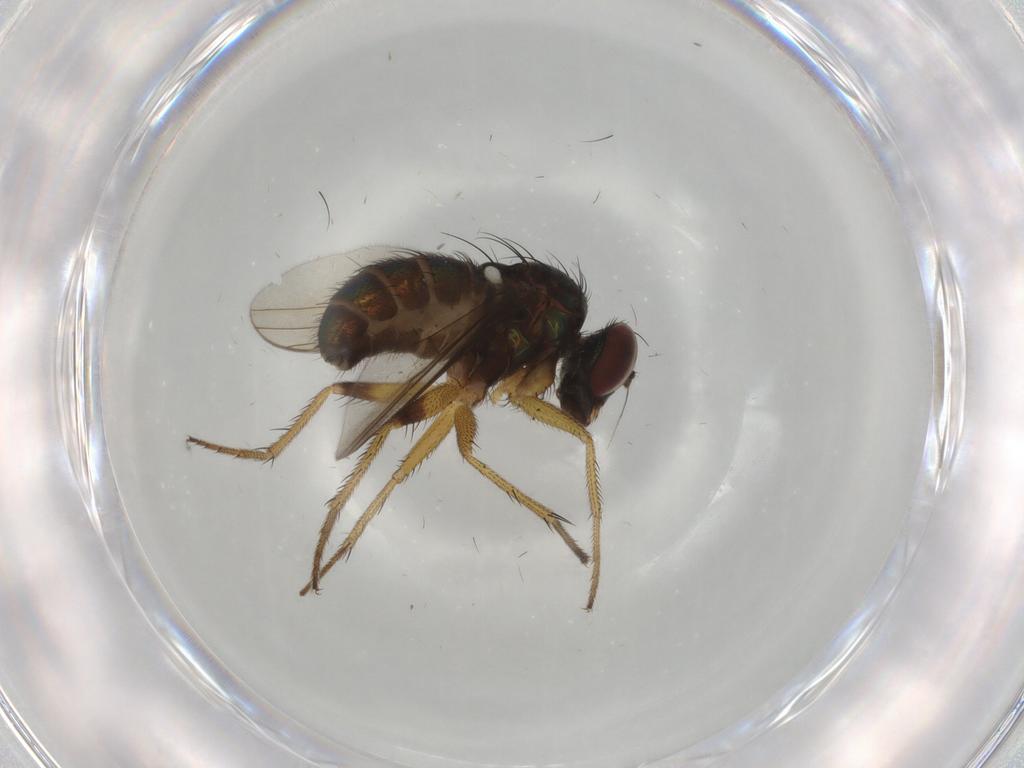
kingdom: Animalia
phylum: Arthropoda
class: Insecta
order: Diptera
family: Dolichopodidae
